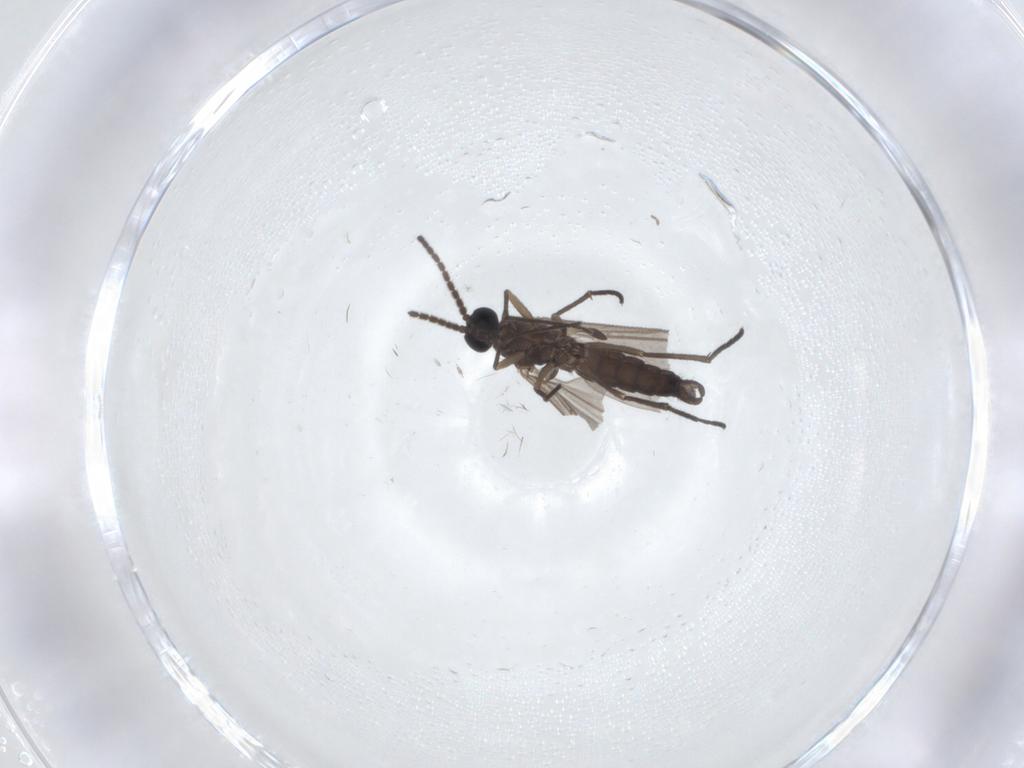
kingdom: Animalia
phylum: Arthropoda
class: Insecta
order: Diptera
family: Sciaridae
